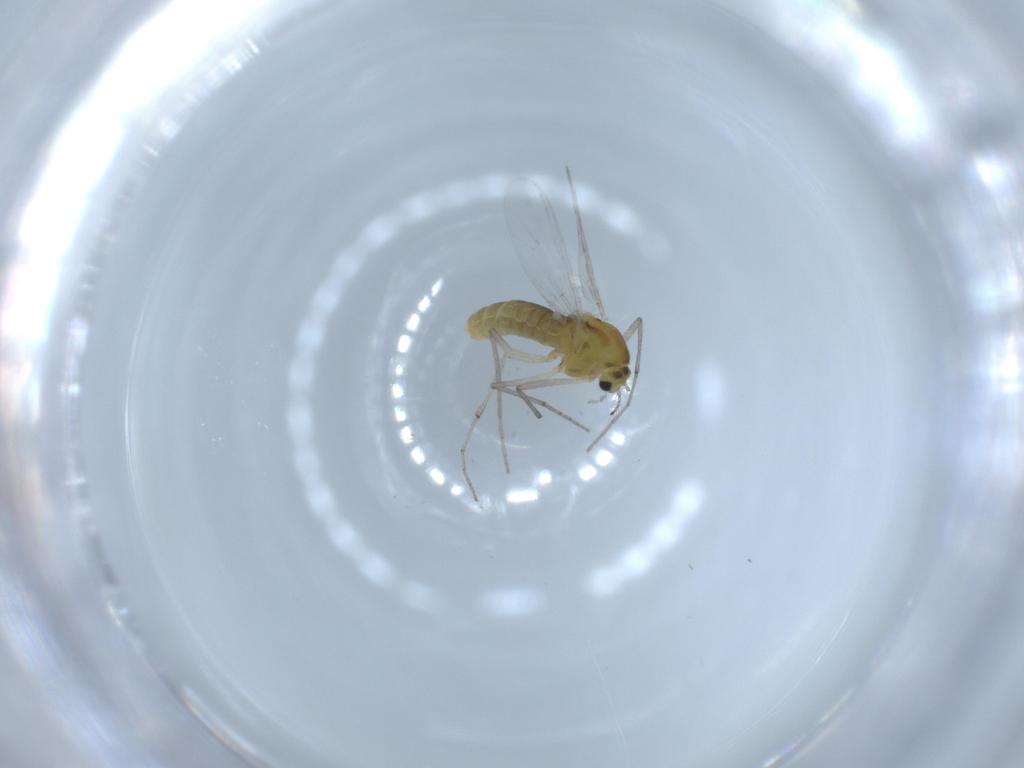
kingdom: Animalia
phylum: Arthropoda
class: Insecta
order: Diptera
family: Chironomidae
